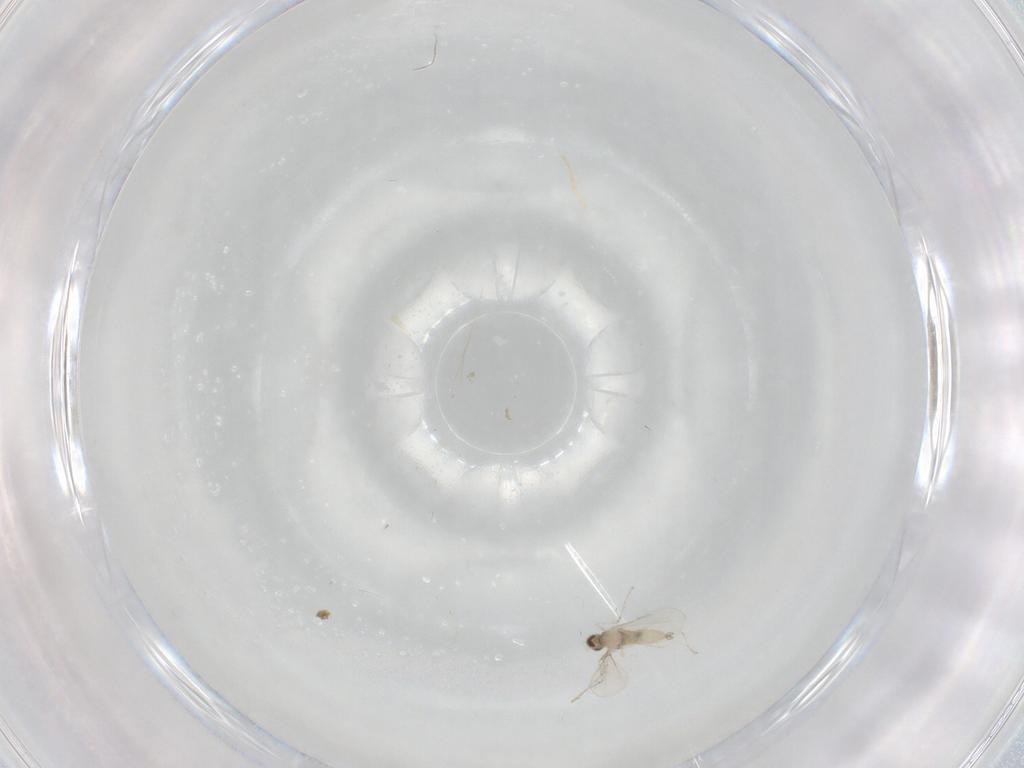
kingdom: Animalia
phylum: Arthropoda
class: Insecta
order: Diptera
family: Cecidomyiidae
